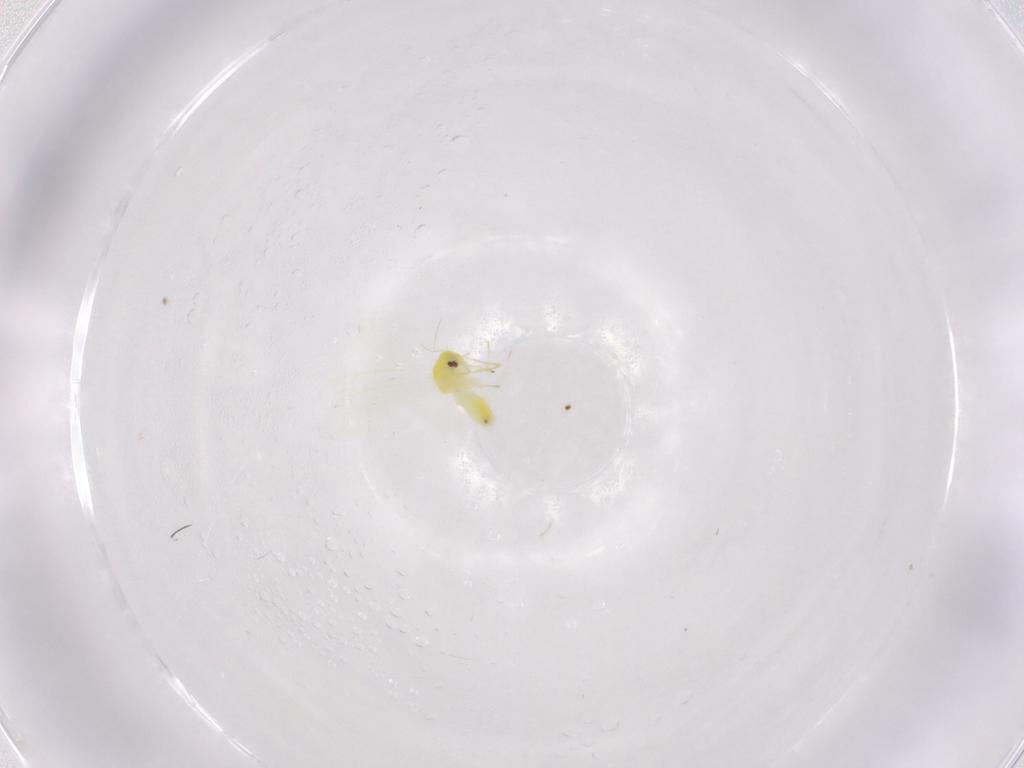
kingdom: Animalia
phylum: Arthropoda
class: Insecta
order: Hemiptera
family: Aleyrodidae
